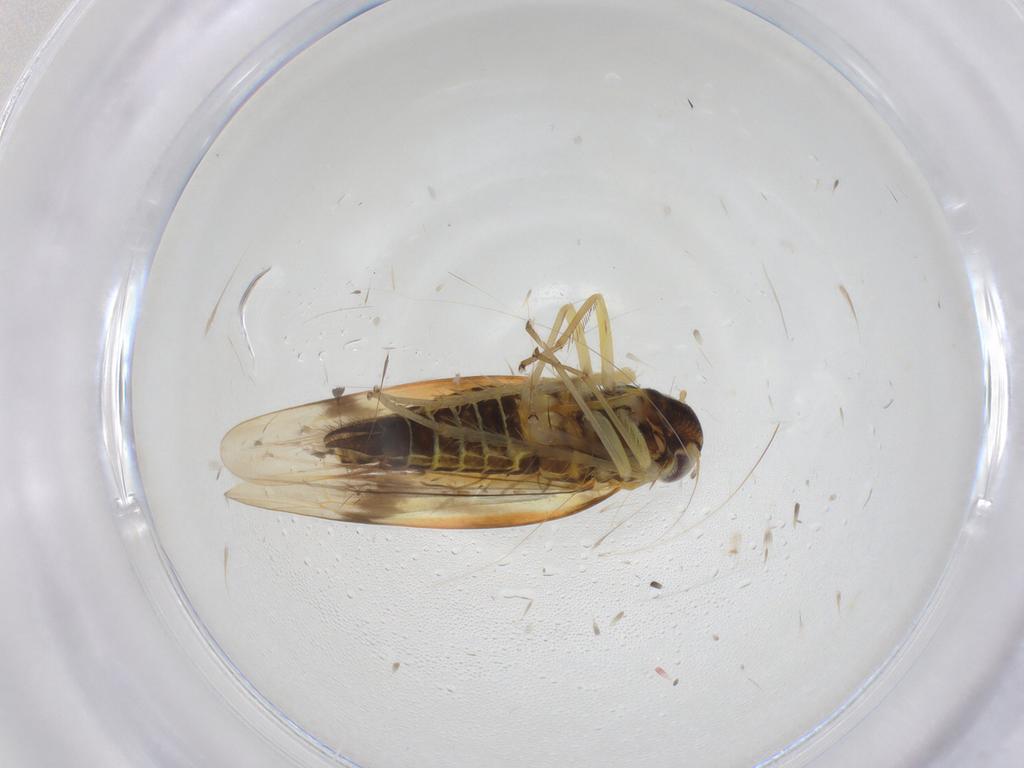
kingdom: Animalia
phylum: Arthropoda
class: Insecta
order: Hemiptera
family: Cicadellidae
